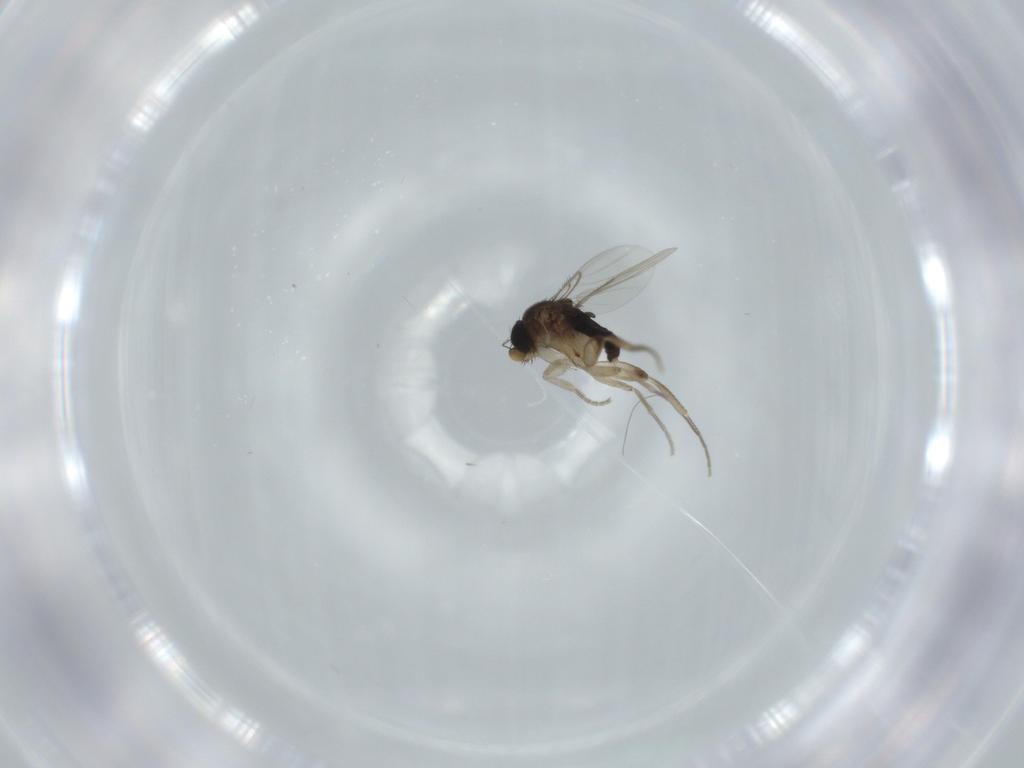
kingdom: Animalia
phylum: Arthropoda
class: Insecta
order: Diptera
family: Phoridae
